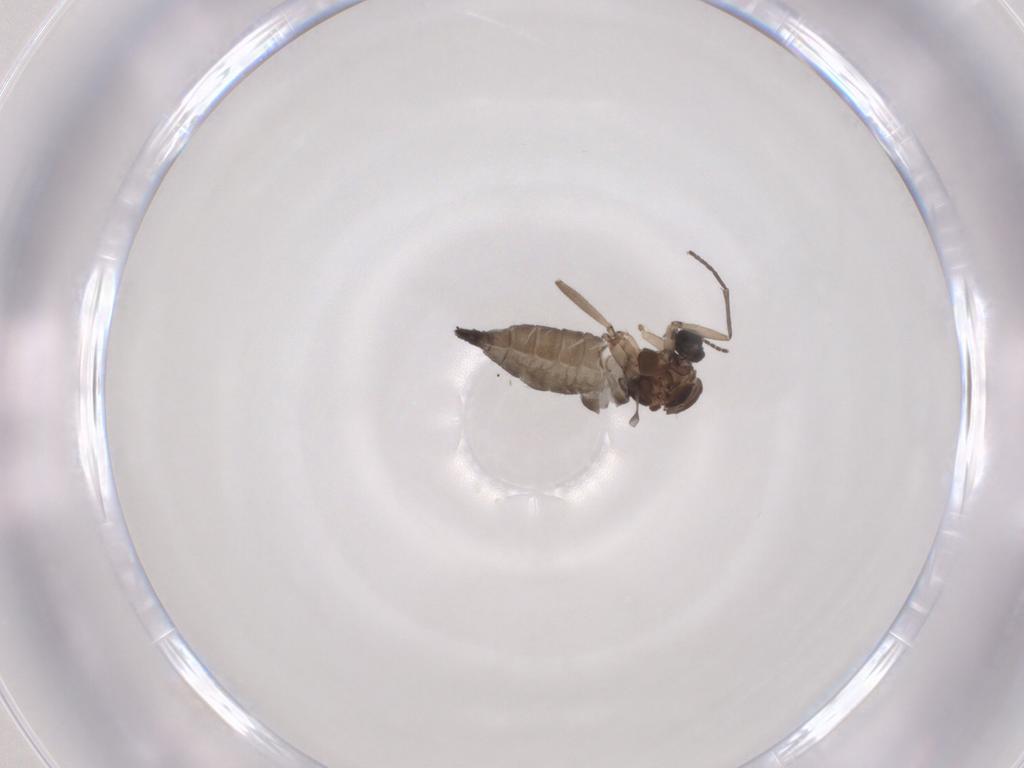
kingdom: Animalia
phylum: Arthropoda
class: Insecta
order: Diptera
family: Sciaridae
